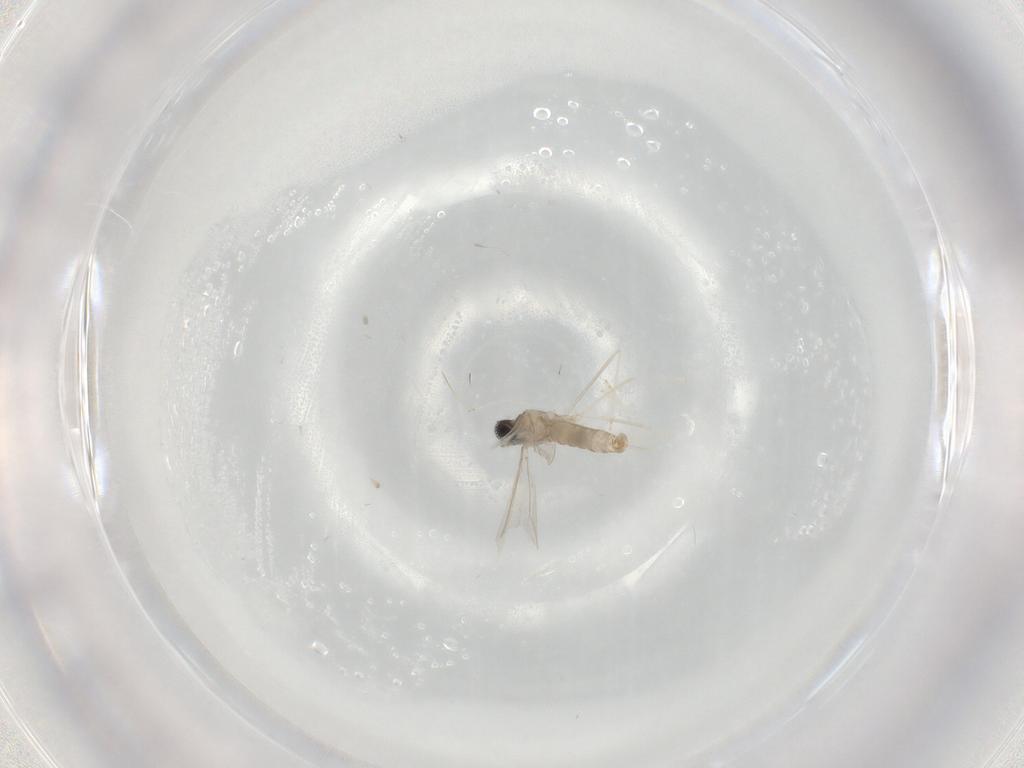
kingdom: Animalia
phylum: Arthropoda
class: Insecta
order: Diptera
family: Cecidomyiidae
